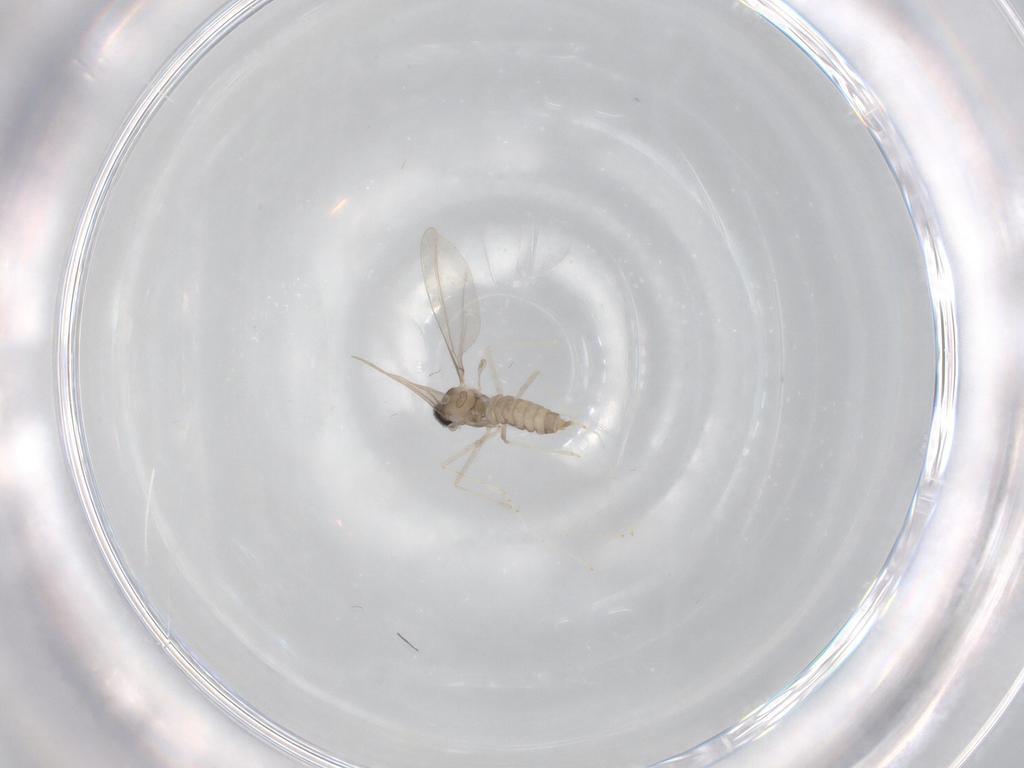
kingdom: Animalia
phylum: Arthropoda
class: Insecta
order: Diptera
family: Cecidomyiidae
